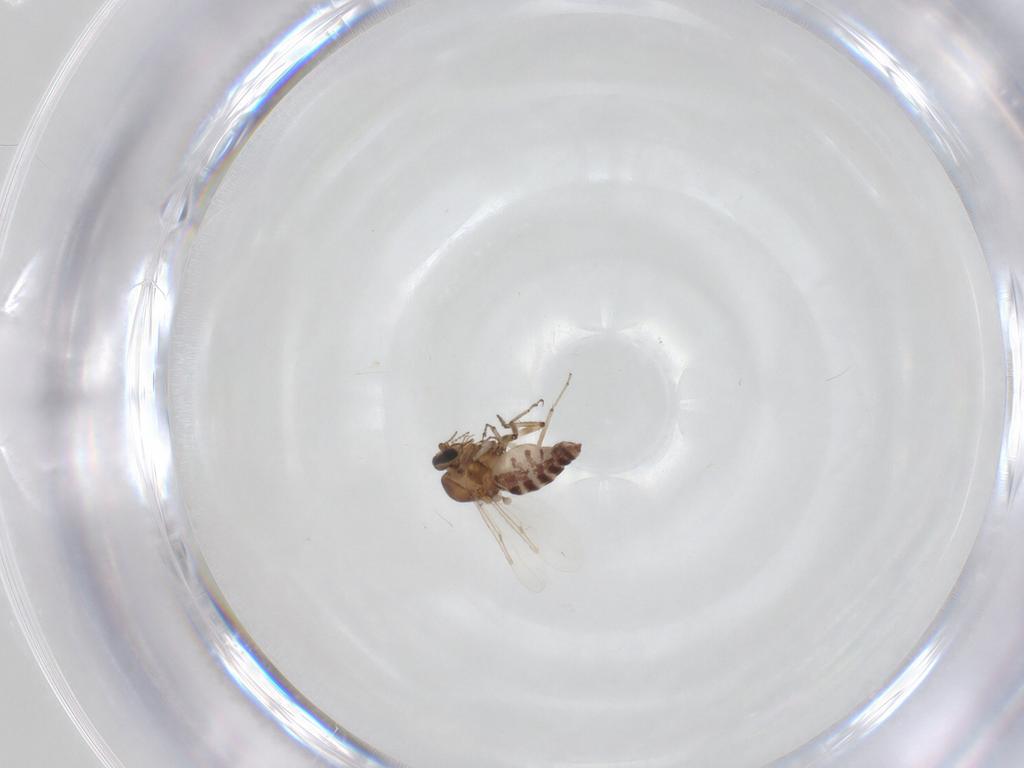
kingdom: Animalia
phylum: Arthropoda
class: Insecta
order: Diptera
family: Ceratopogonidae
